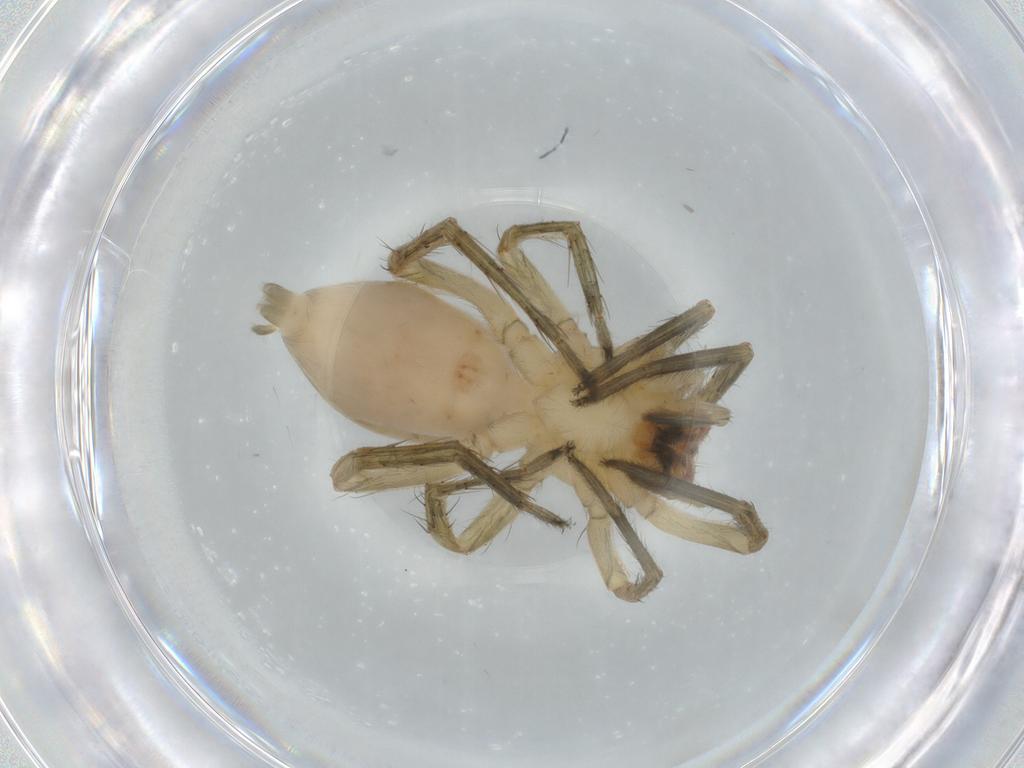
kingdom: Animalia
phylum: Arthropoda
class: Arachnida
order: Araneae
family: Anyphaenidae
